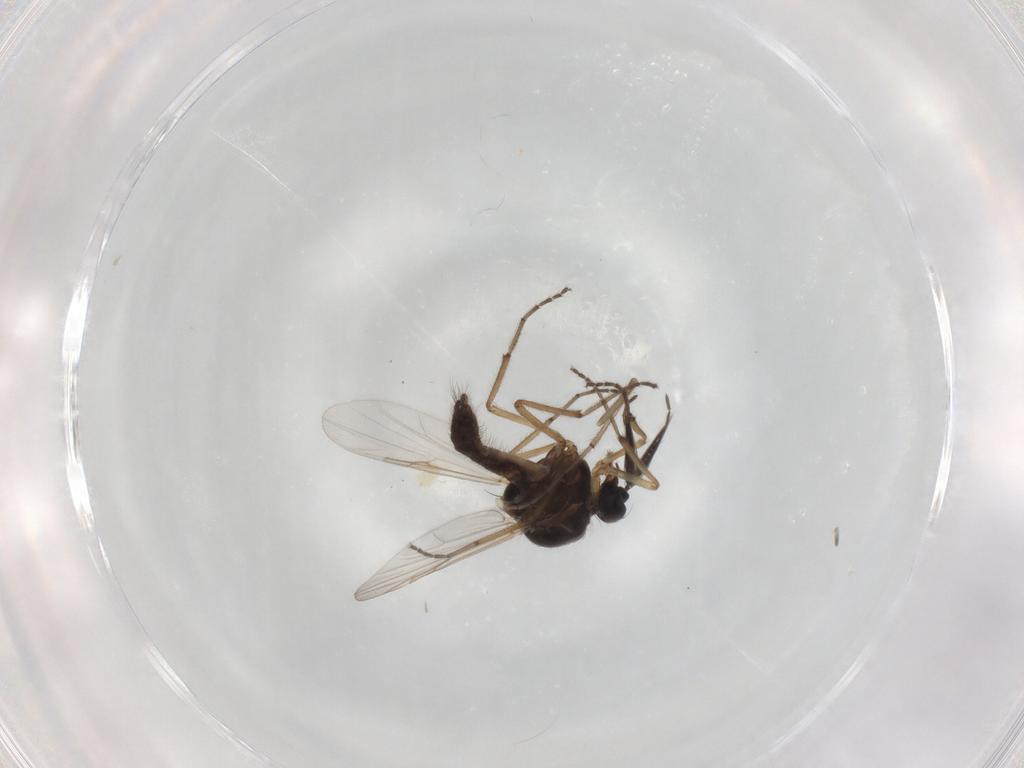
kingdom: Animalia
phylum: Arthropoda
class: Insecta
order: Diptera
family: Ceratopogonidae
